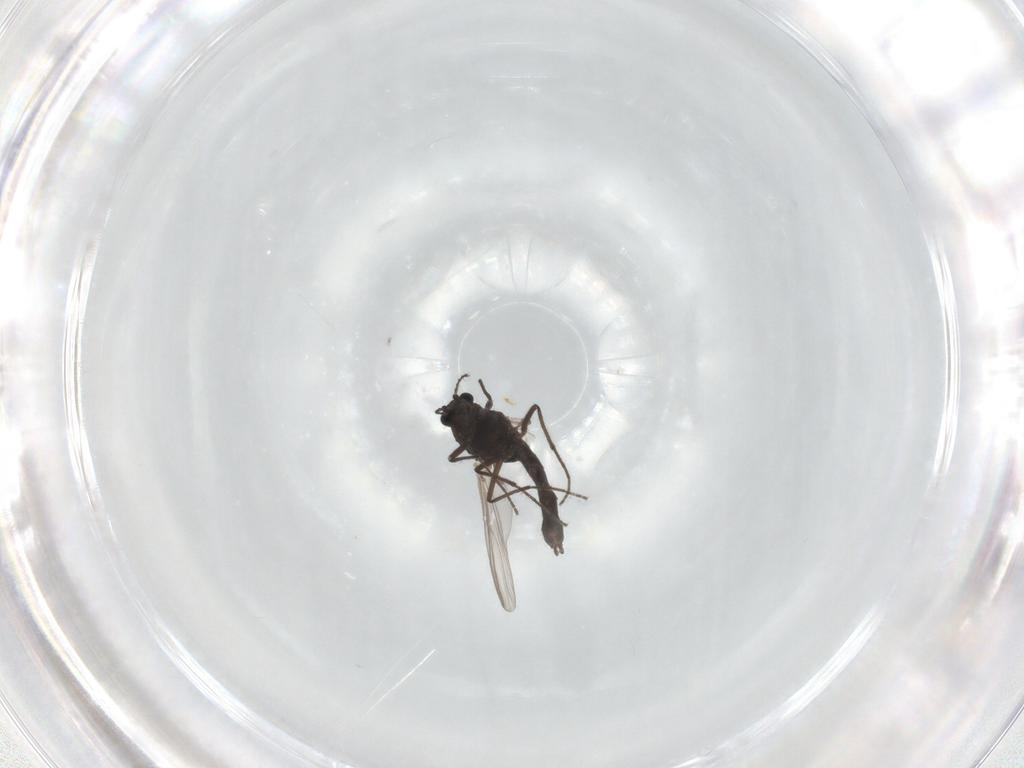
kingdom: Animalia
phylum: Arthropoda
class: Insecta
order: Diptera
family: Chironomidae
